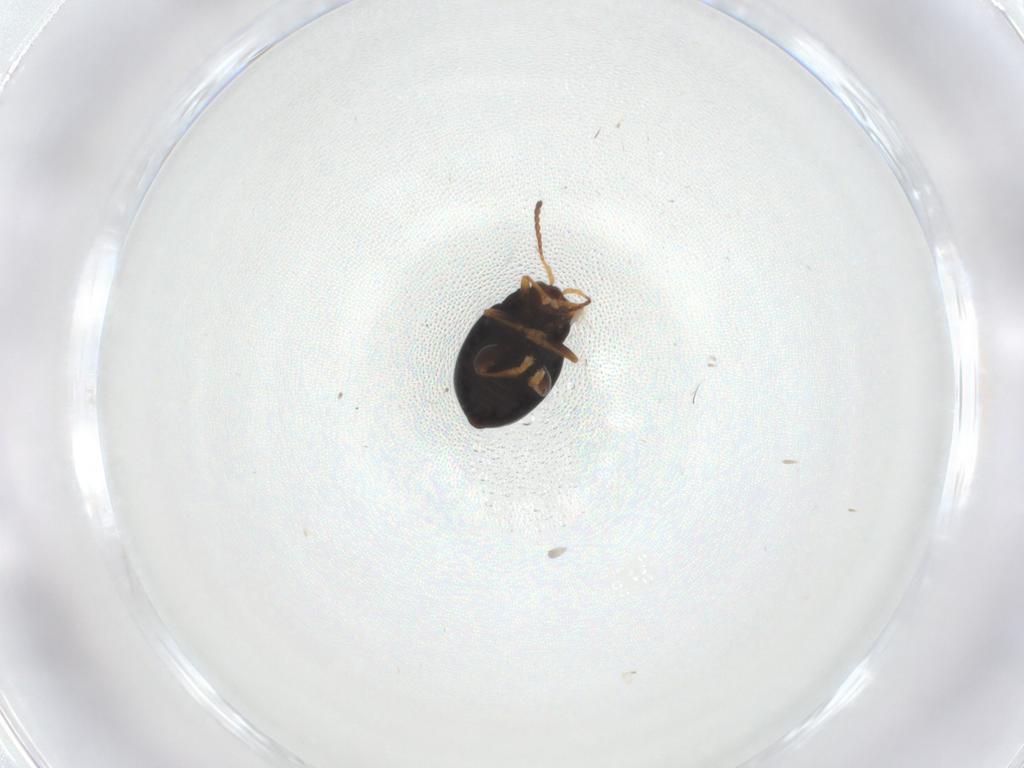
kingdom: Animalia
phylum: Arthropoda
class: Insecta
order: Coleoptera
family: Chrysomelidae
